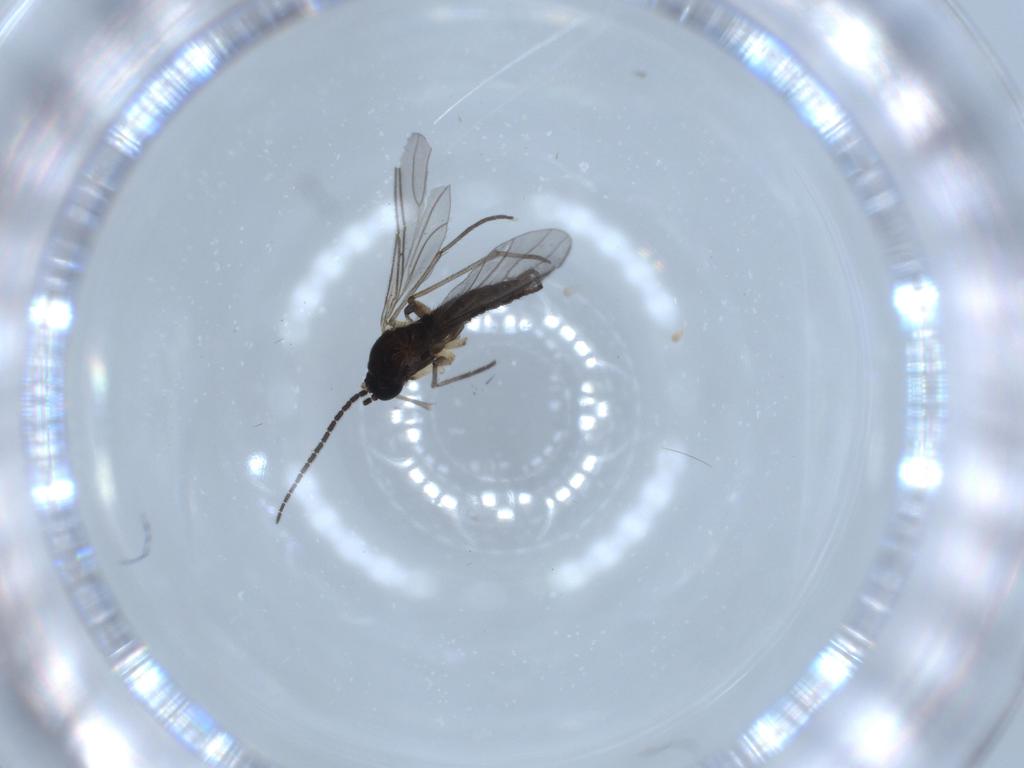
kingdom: Animalia
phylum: Arthropoda
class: Insecta
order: Diptera
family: Sciaridae
